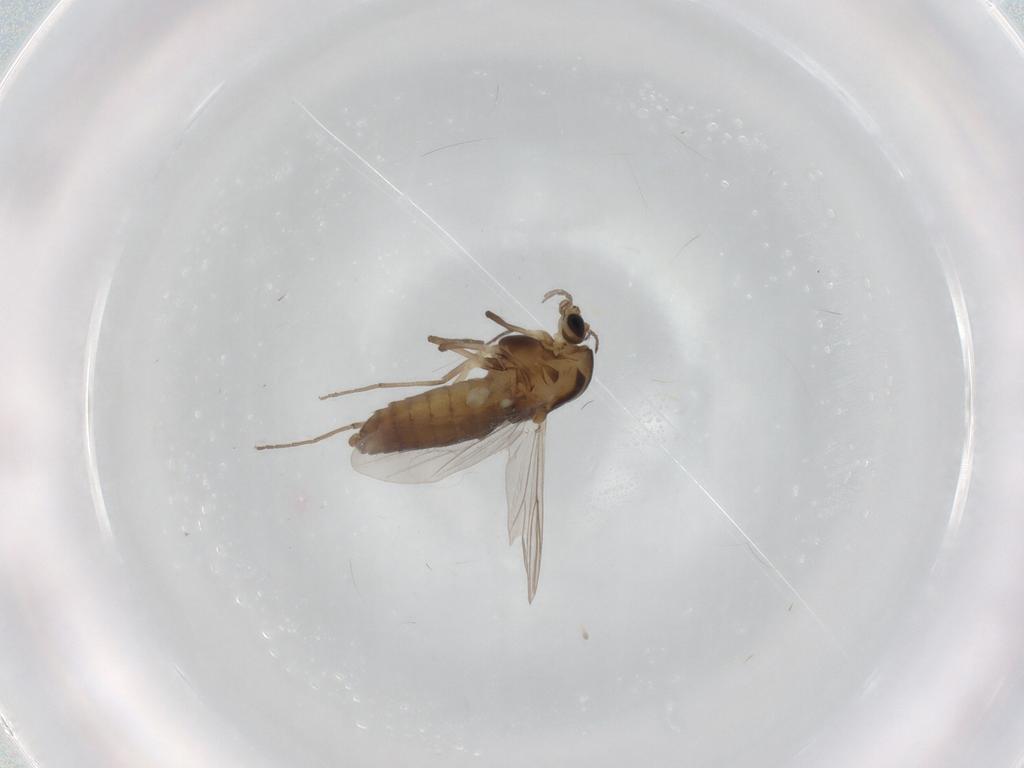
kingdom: Animalia
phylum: Arthropoda
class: Insecta
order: Diptera
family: Chironomidae
